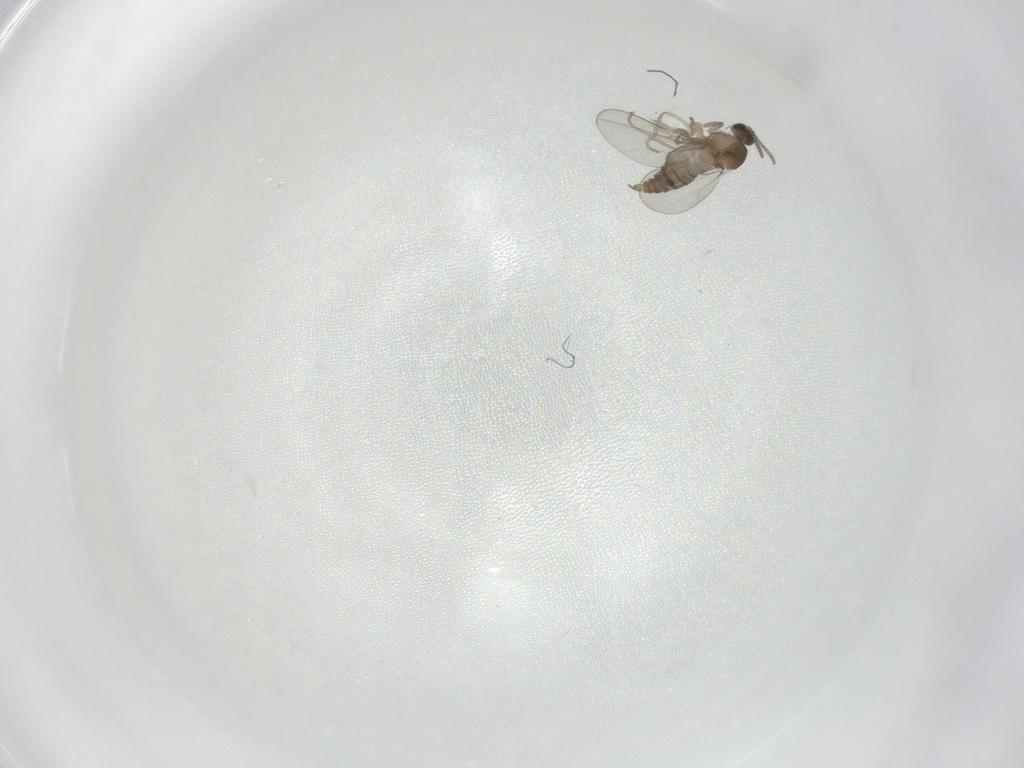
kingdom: Animalia
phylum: Arthropoda
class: Insecta
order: Diptera
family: Cecidomyiidae
